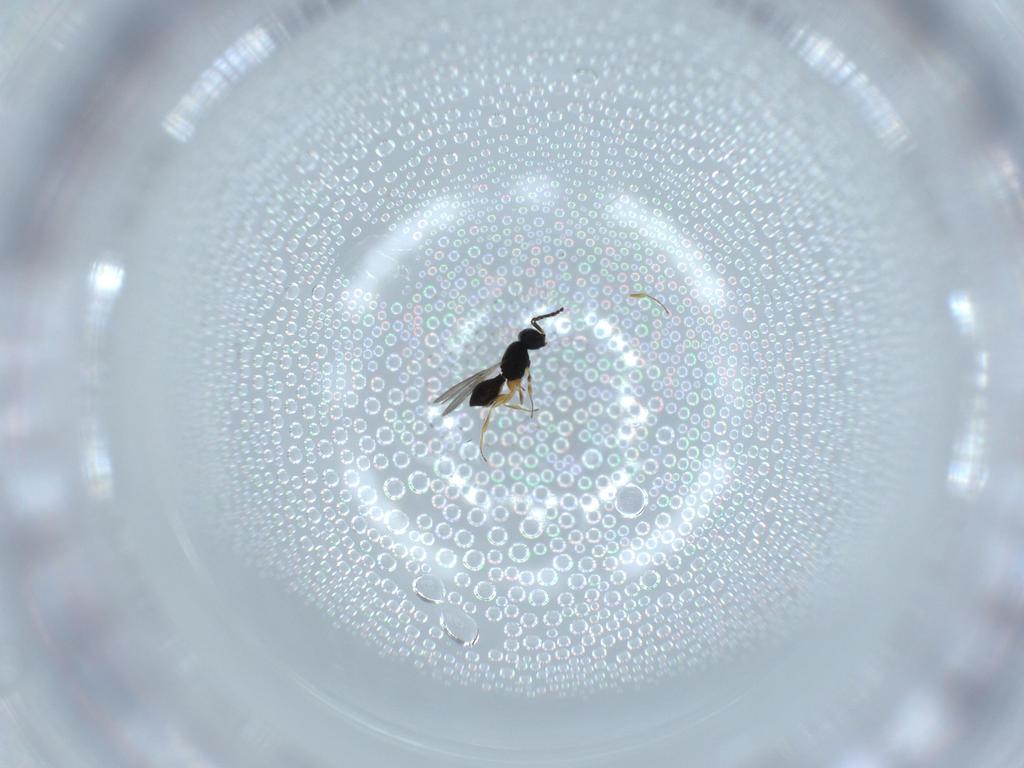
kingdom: Animalia
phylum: Arthropoda
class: Insecta
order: Hymenoptera
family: Scelionidae
